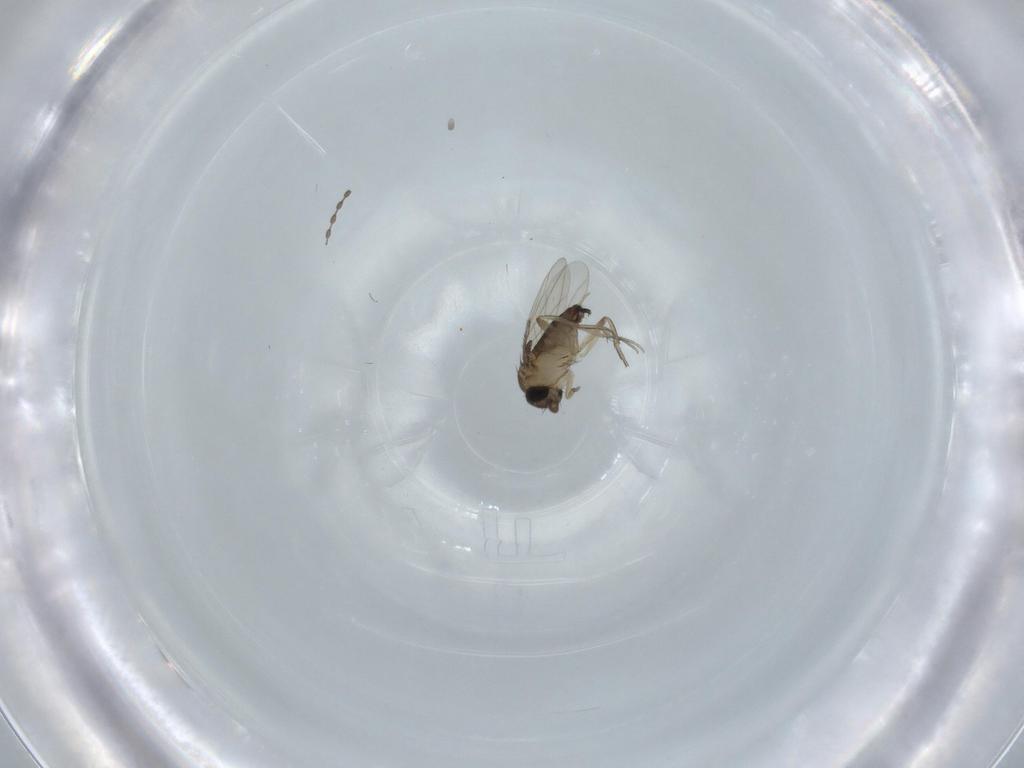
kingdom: Animalia
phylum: Arthropoda
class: Insecta
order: Diptera
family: Phoridae
